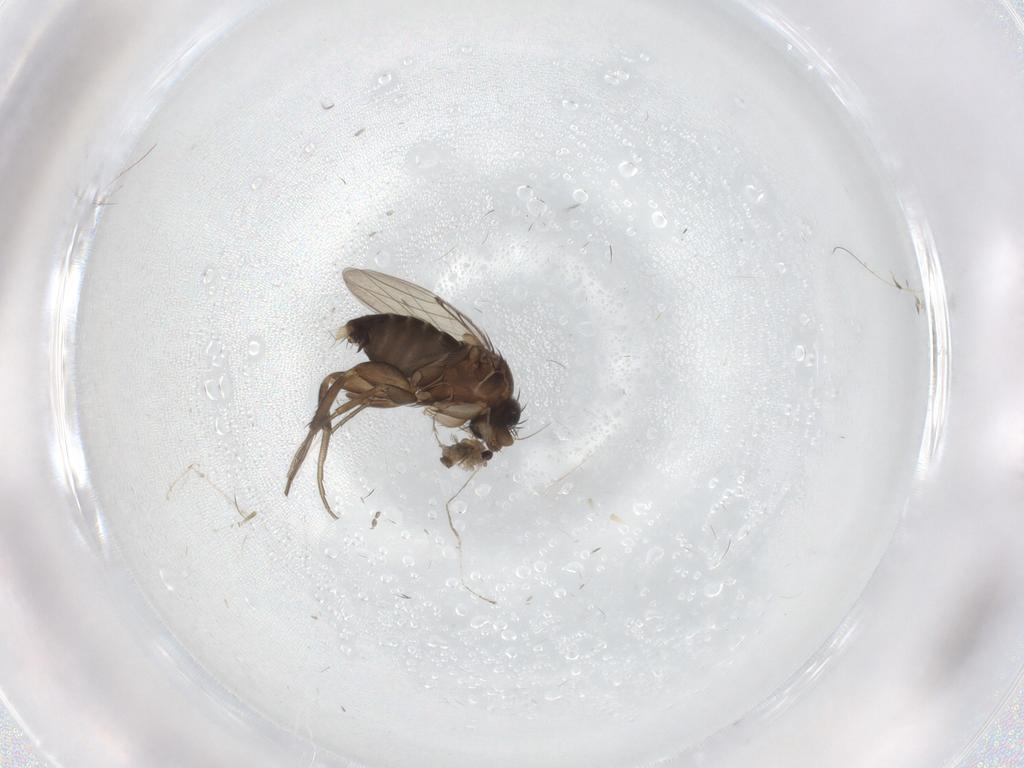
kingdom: Animalia
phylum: Arthropoda
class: Insecta
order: Diptera
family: Phoridae
